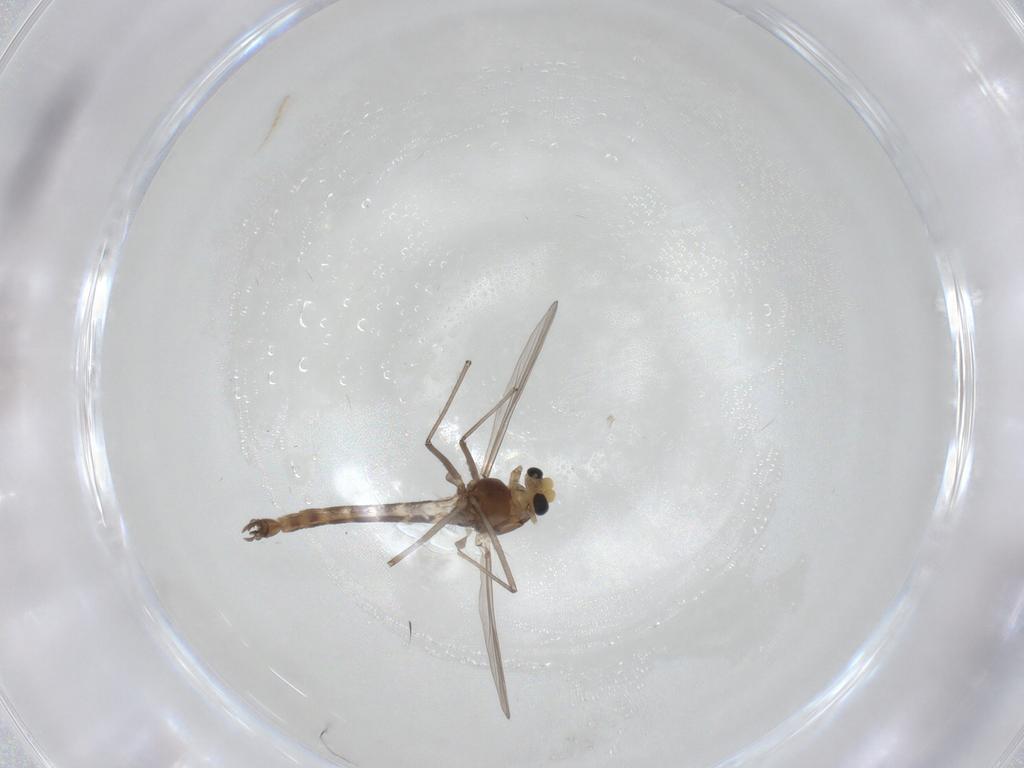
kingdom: Animalia
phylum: Arthropoda
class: Insecta
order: Diptera
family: Chironomidae
